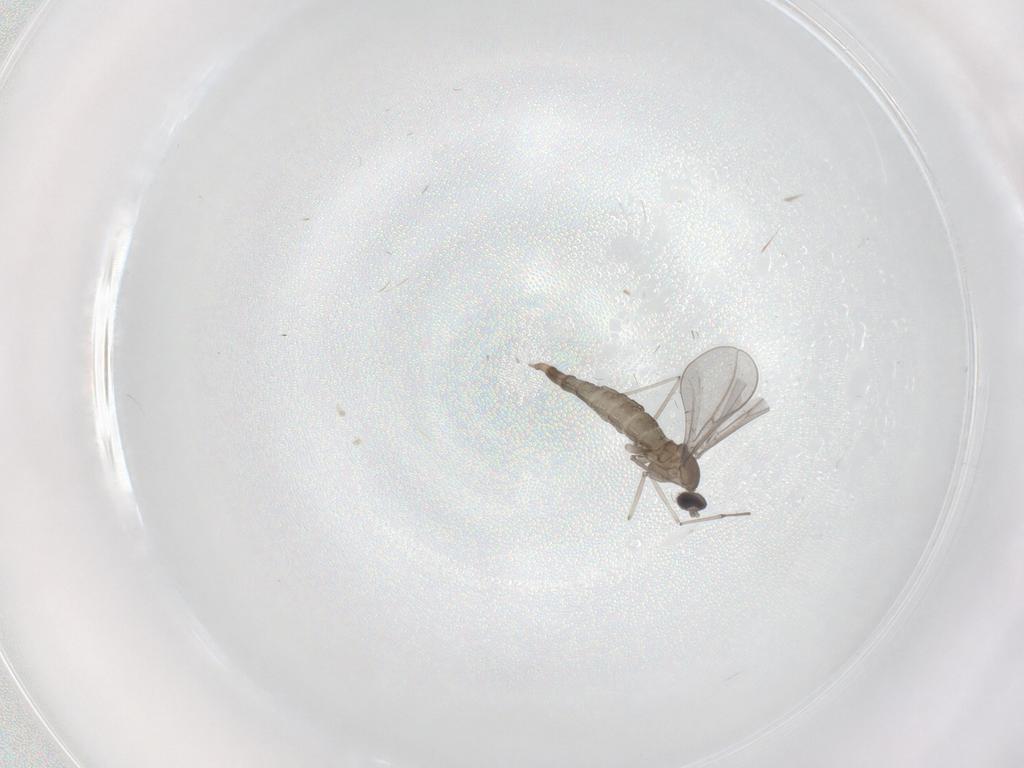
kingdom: Animalia
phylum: Arthropoda
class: Insecta
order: Diptera
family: Cecidomyiidae
